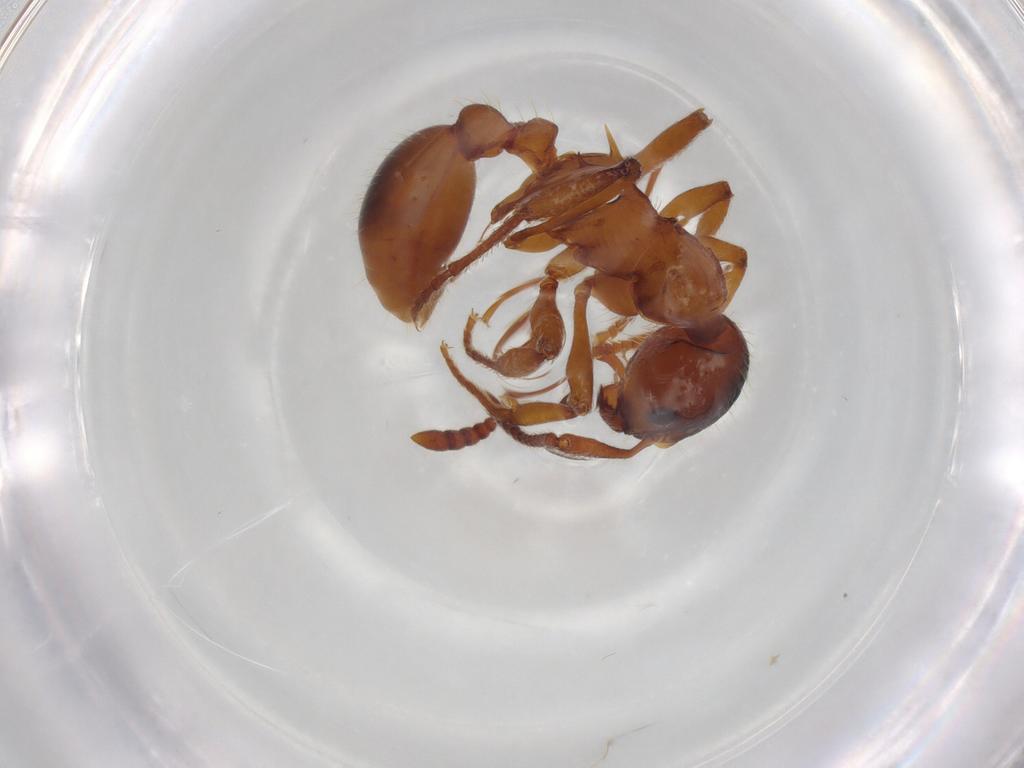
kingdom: Animalia
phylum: Arthropoda
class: Insecta
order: Hymenoptera
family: Formicidae
